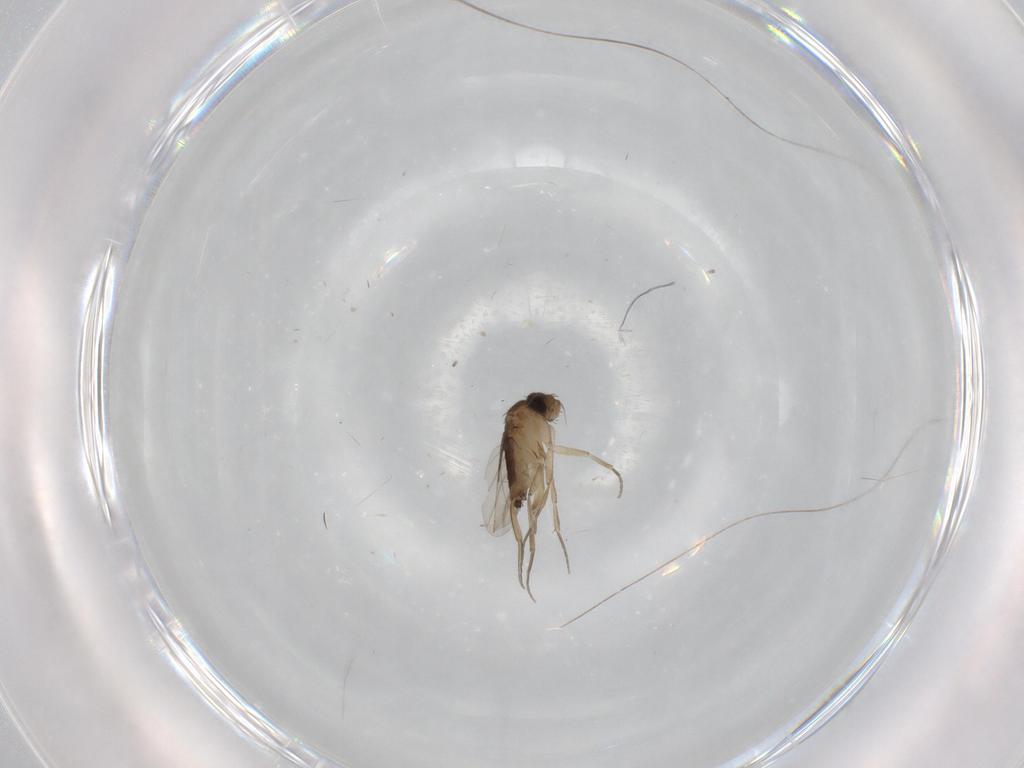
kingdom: Animalia
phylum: Arthropoda
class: Insecta
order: Diptera
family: Phoridae
